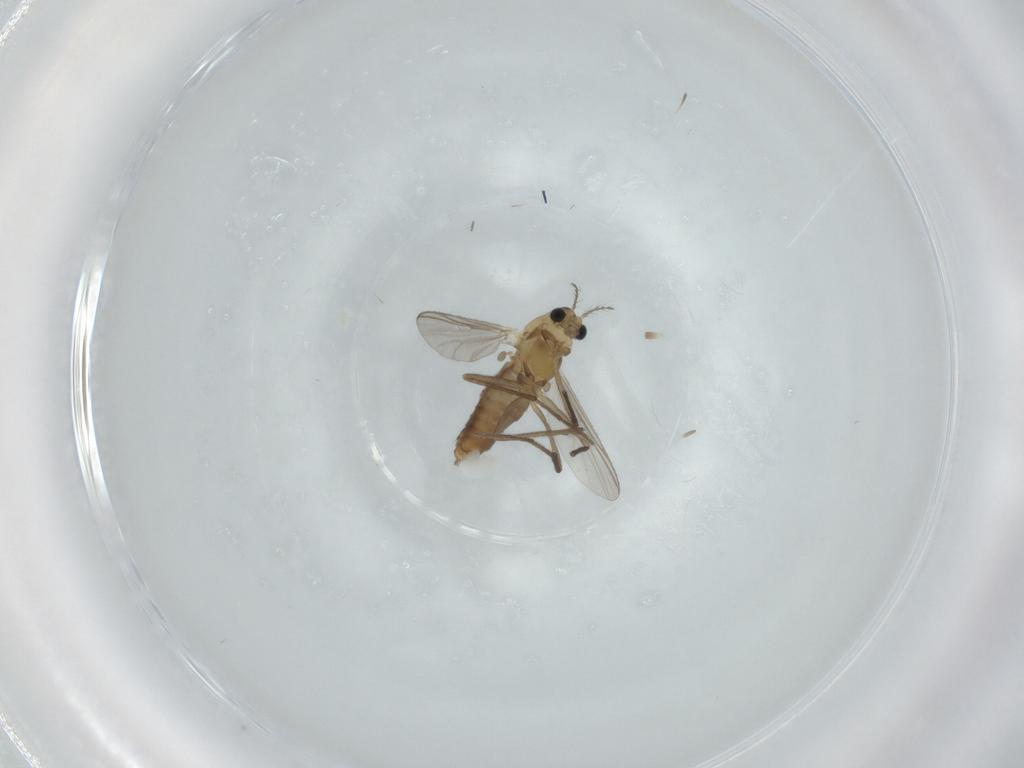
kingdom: Animalia
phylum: Arthropoda
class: Insecta
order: Diptera
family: Chironomidae
